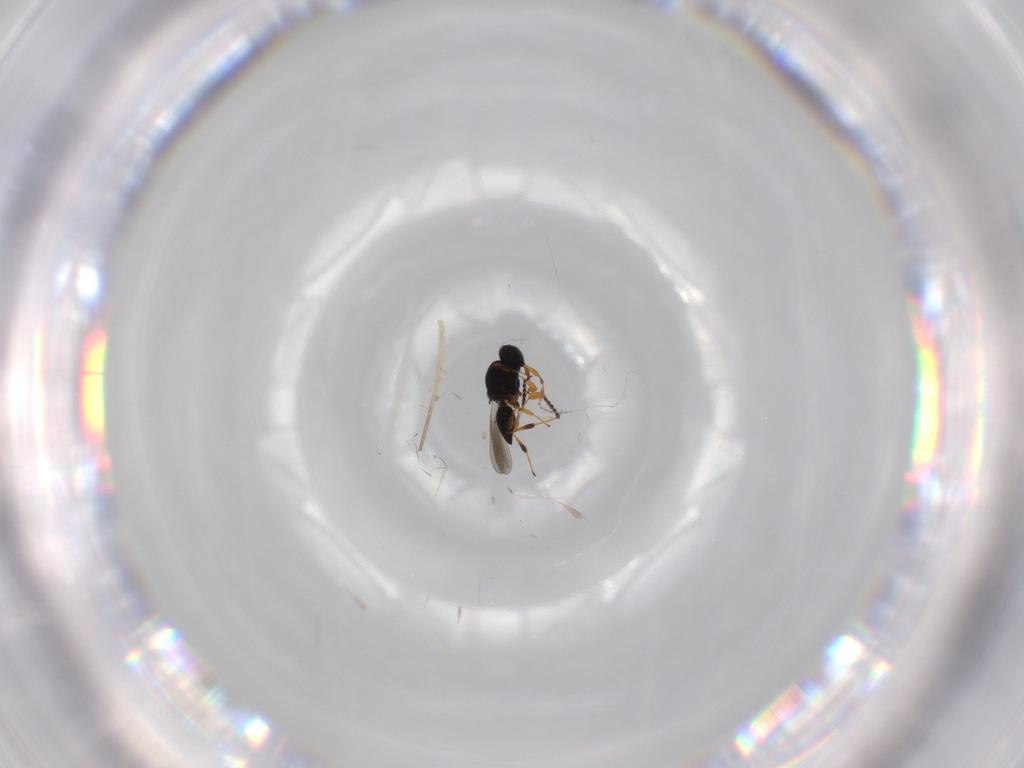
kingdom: Animalia
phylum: Arthropoda
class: Insecta
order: Hymenoptera
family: Platygastridae
